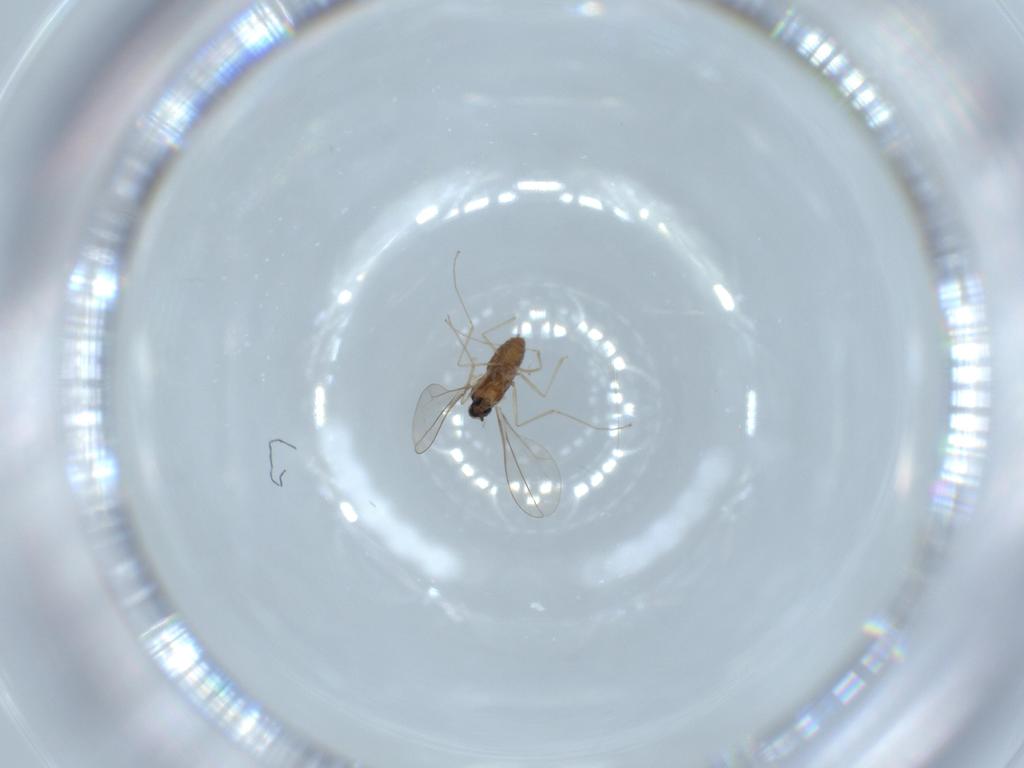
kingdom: Animalia
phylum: Arthropoda
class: Insecta
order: Diptera
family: Cecidomyiidae
